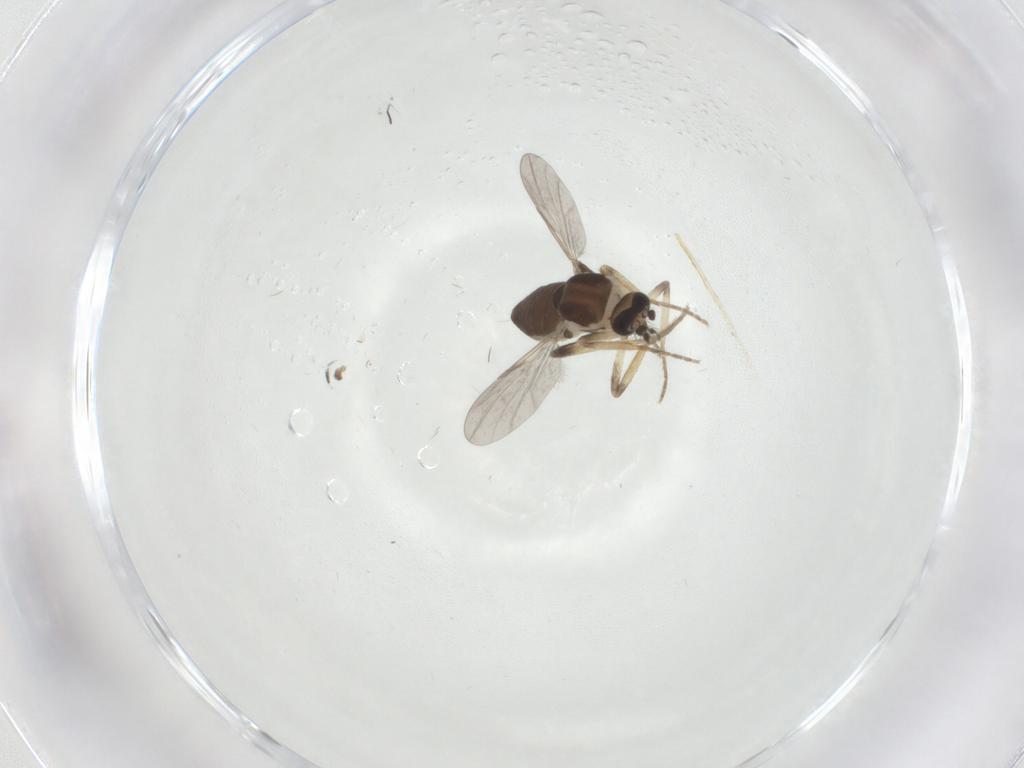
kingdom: Animalia
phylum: Arthropoda
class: Insecta
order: Diptera
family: Ceratopogonidae
